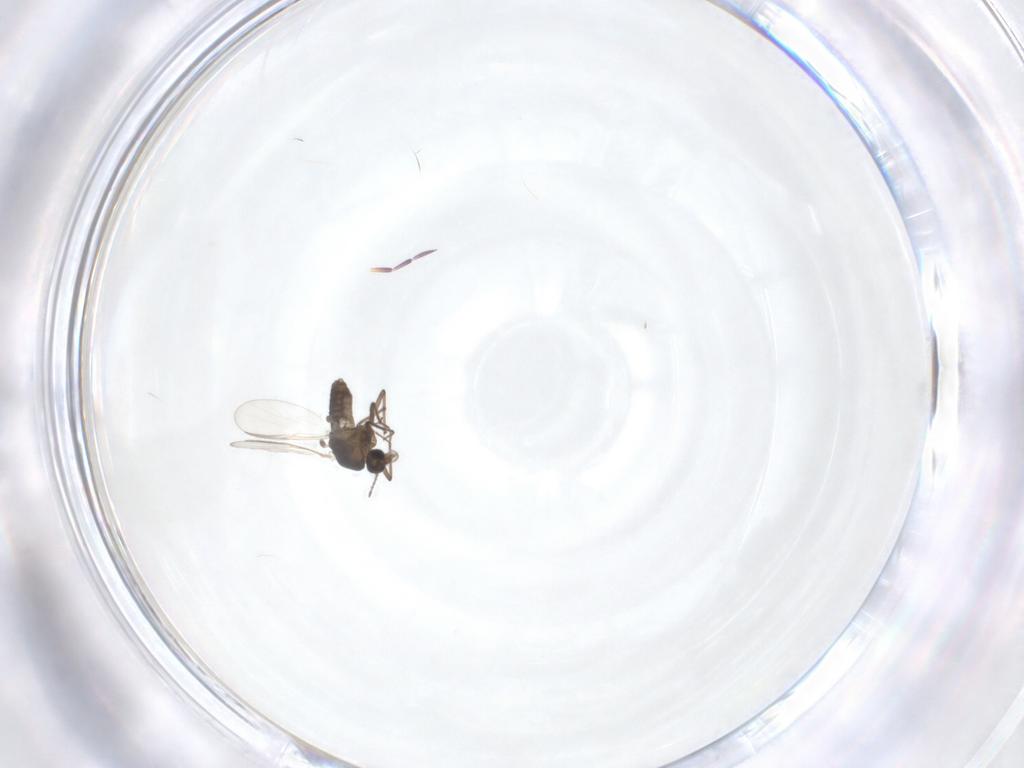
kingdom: Animalia
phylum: Arthropoda
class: Insecta
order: Diptera
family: Chironomidae
